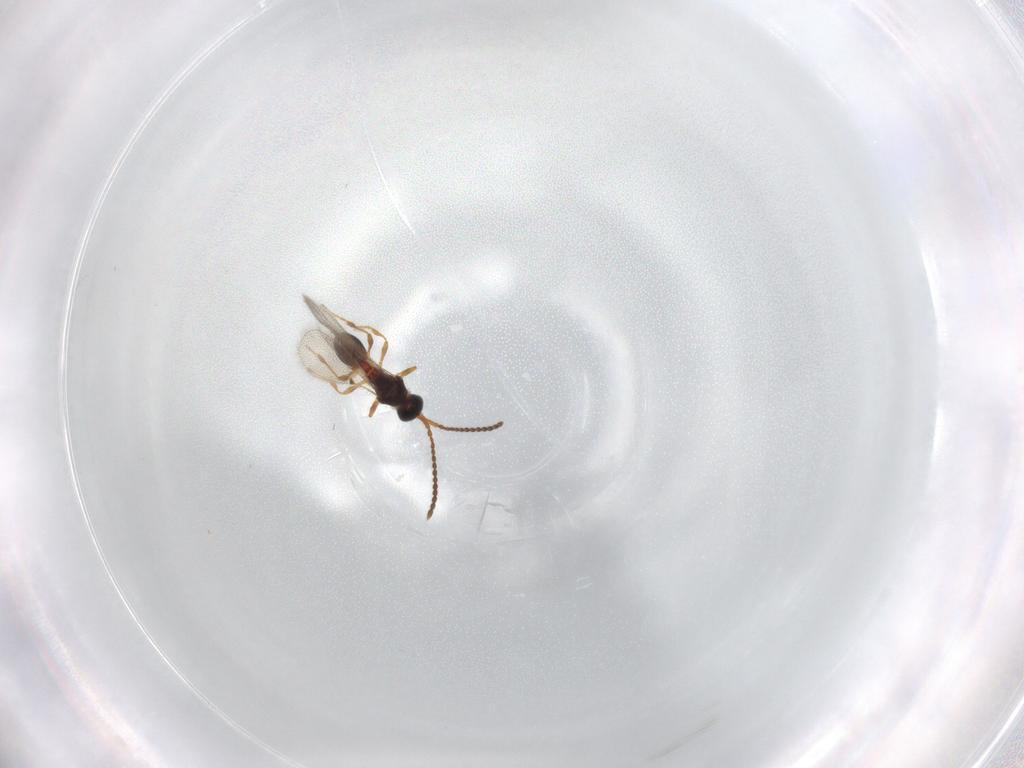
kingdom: Animalia
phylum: Arthropoda
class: Insecta
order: Hymenoptera
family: Diapriidae
